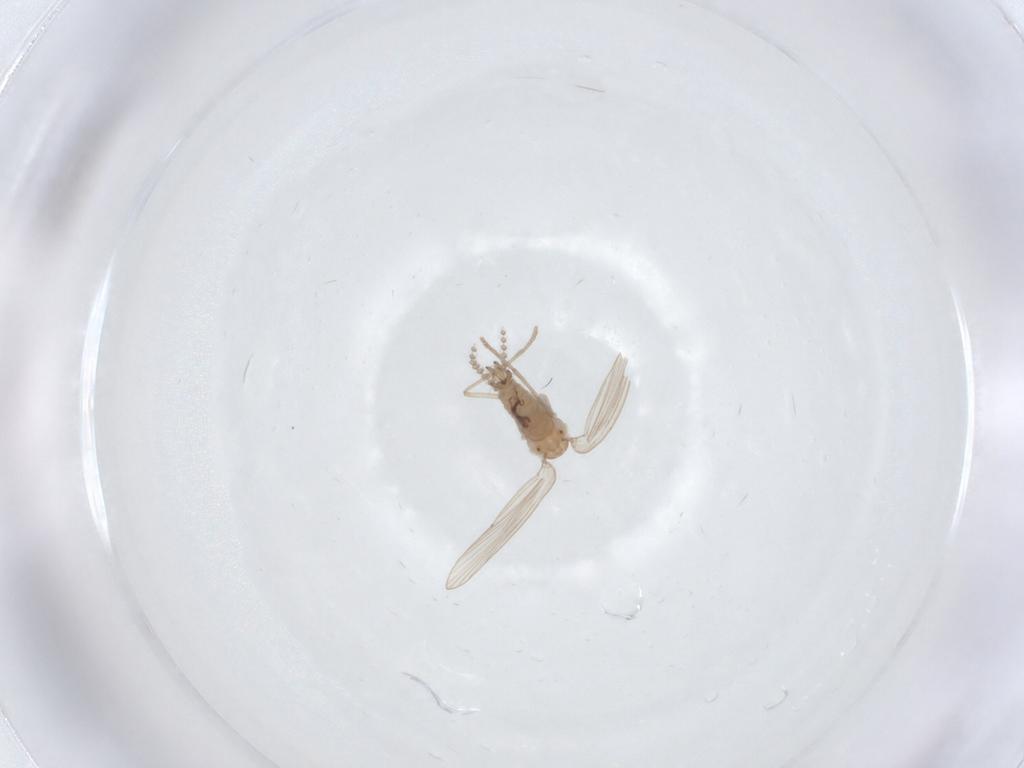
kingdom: Animalia
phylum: Arthropoda
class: Insecta
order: Diptera
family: Psychodidae
